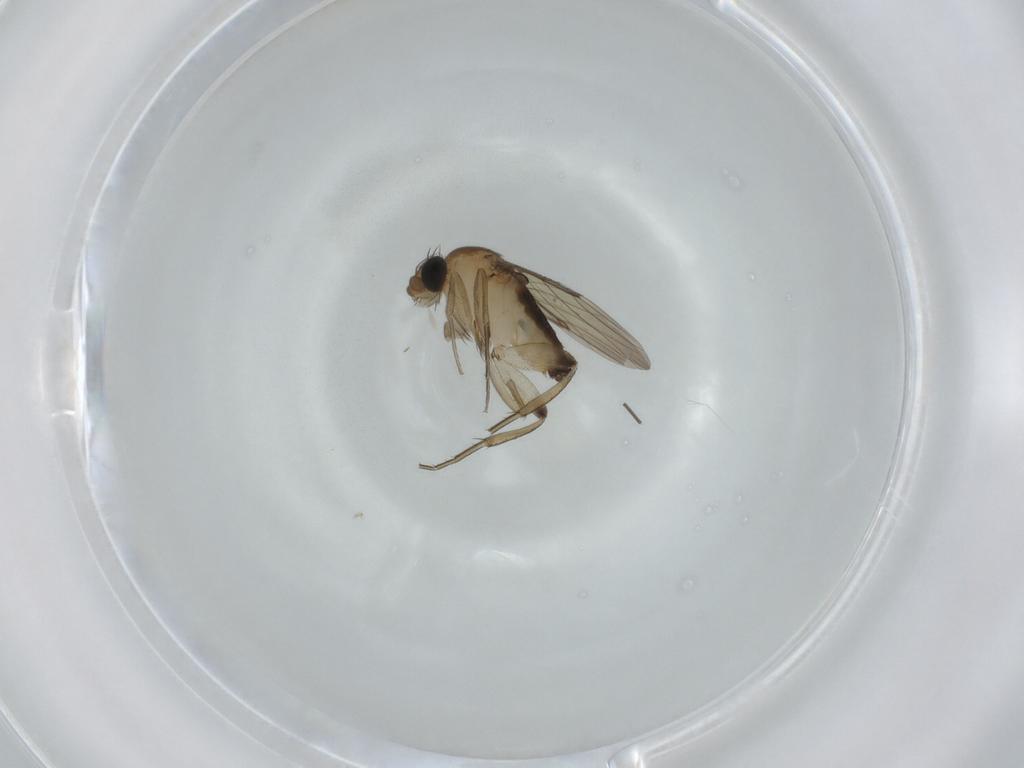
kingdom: Animalia
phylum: Arthropoda
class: Insecta
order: Diptera
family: Phoridae
